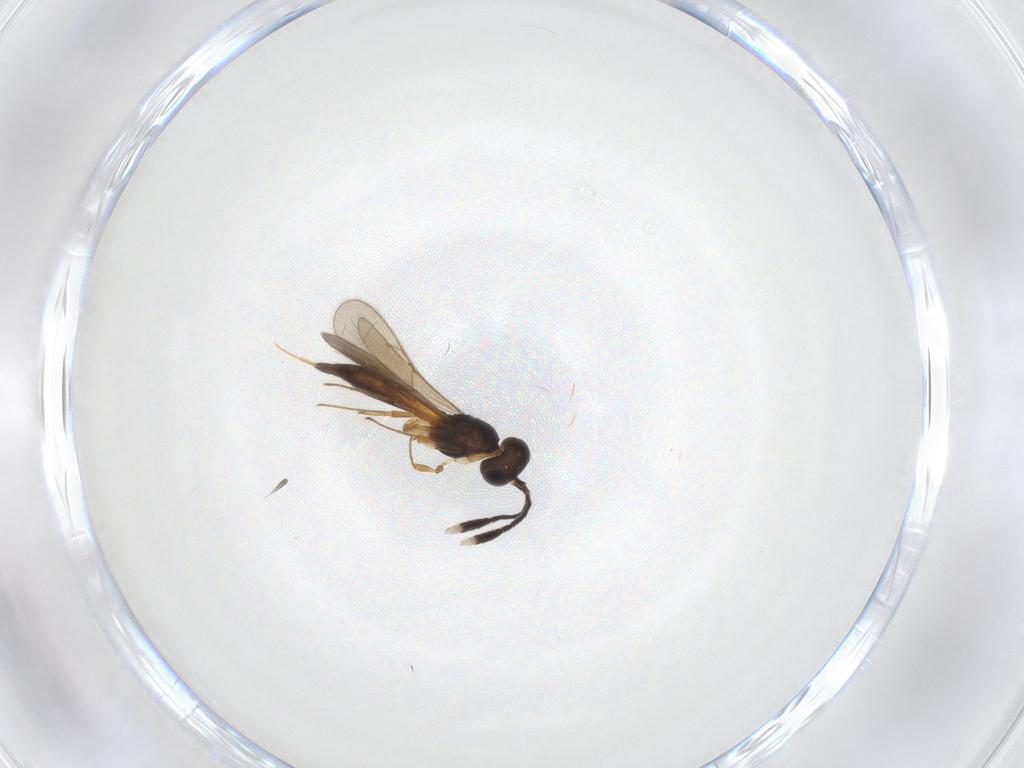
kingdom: Animalia
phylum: Arthropoda
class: Insecta
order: Hymenoptera
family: Scelionidae
